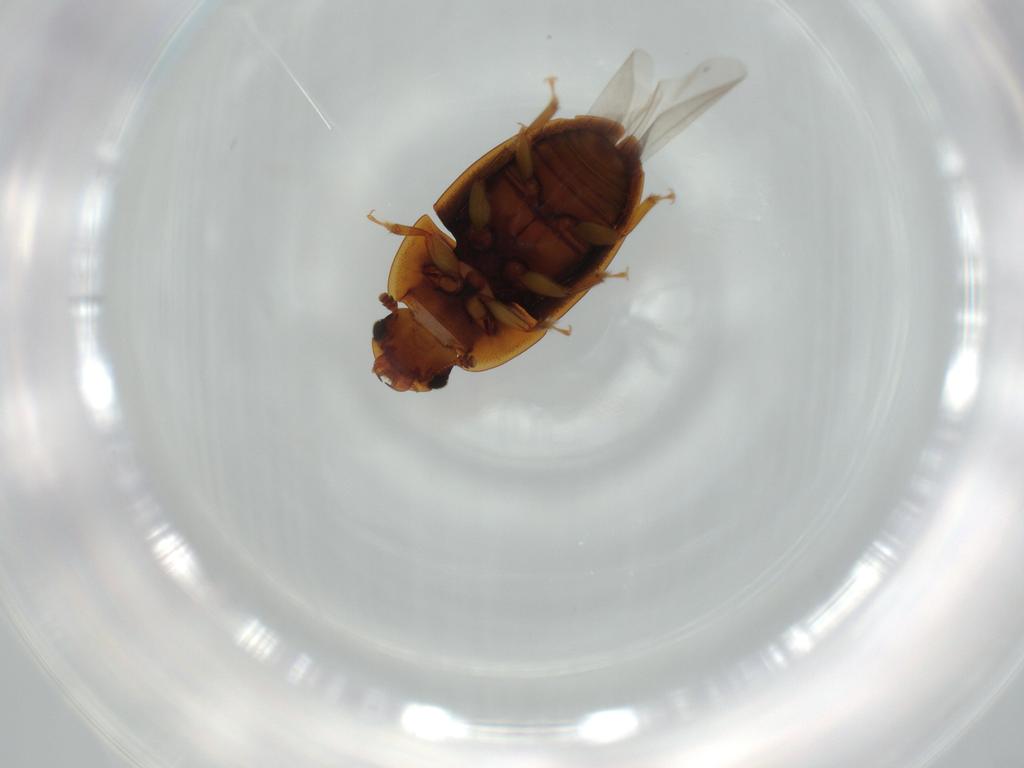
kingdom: Animalia
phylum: Arthropoda
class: Insecta
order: Coleoptera
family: Nitidulidae
